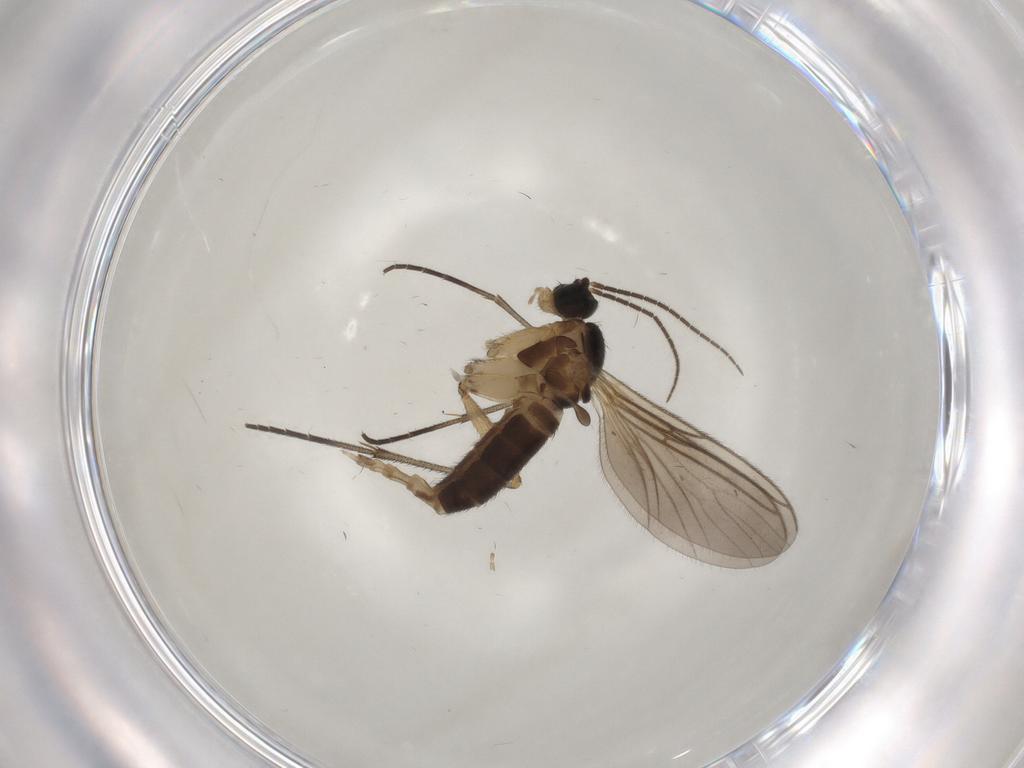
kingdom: Animalia
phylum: Arthropoda
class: Insecta
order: Diptera
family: Sciaridae
